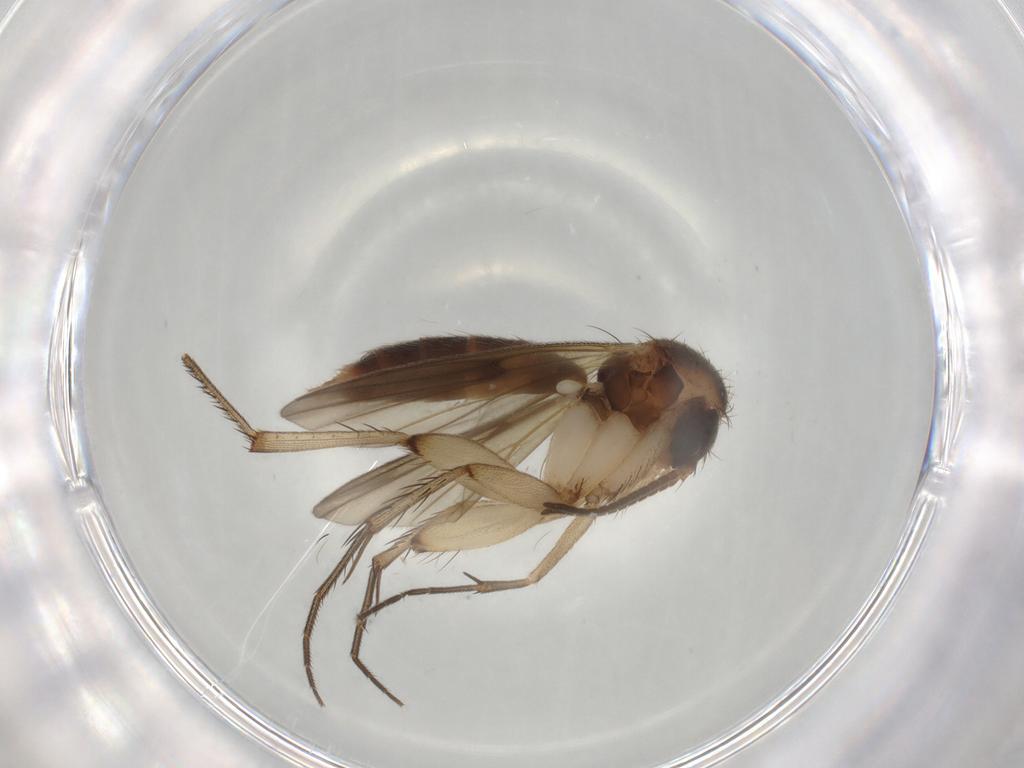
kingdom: Animalia
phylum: Arthropoda
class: Insecta
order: Diptera
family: Mycetophilidae
